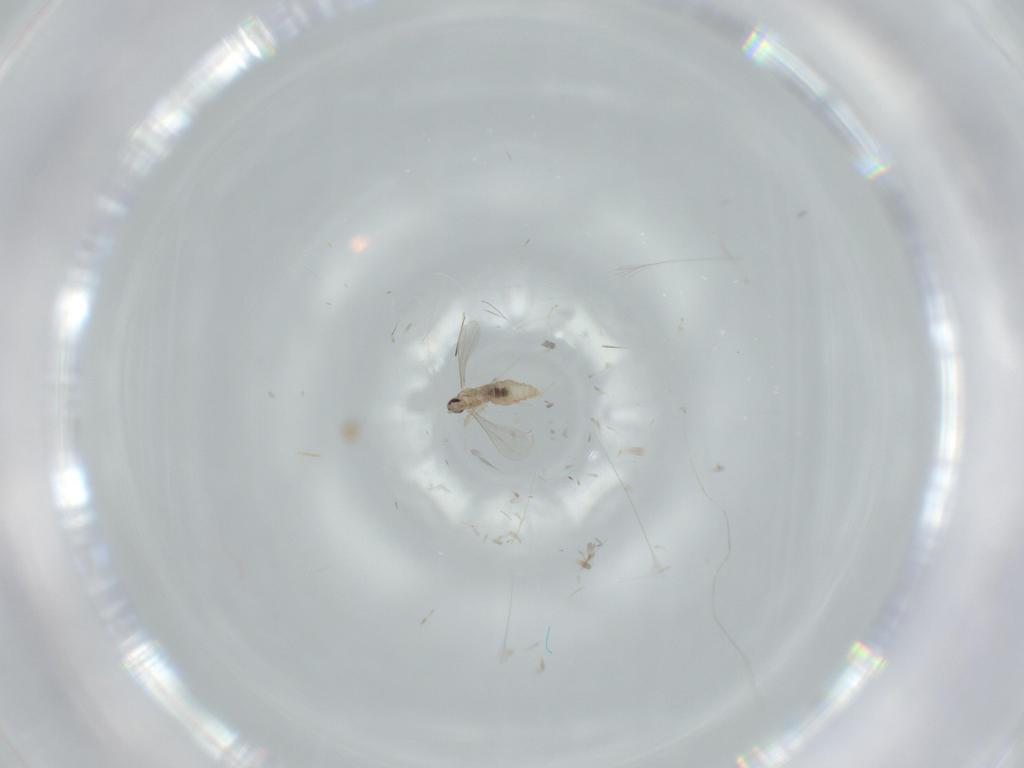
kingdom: Animalia
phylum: Arthropoda
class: Insecta
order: Diptera
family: Cecidomyiidae
